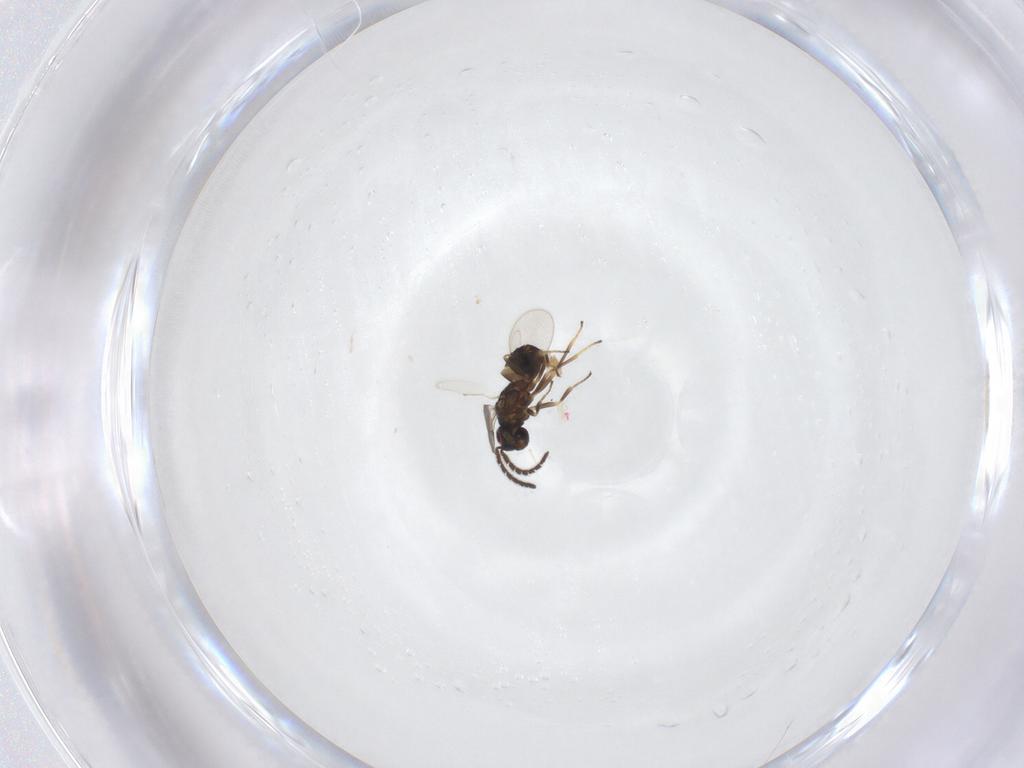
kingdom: Animalia
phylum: Arthropoda
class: Insecta
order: Hymenoptera
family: Encyrtidae
